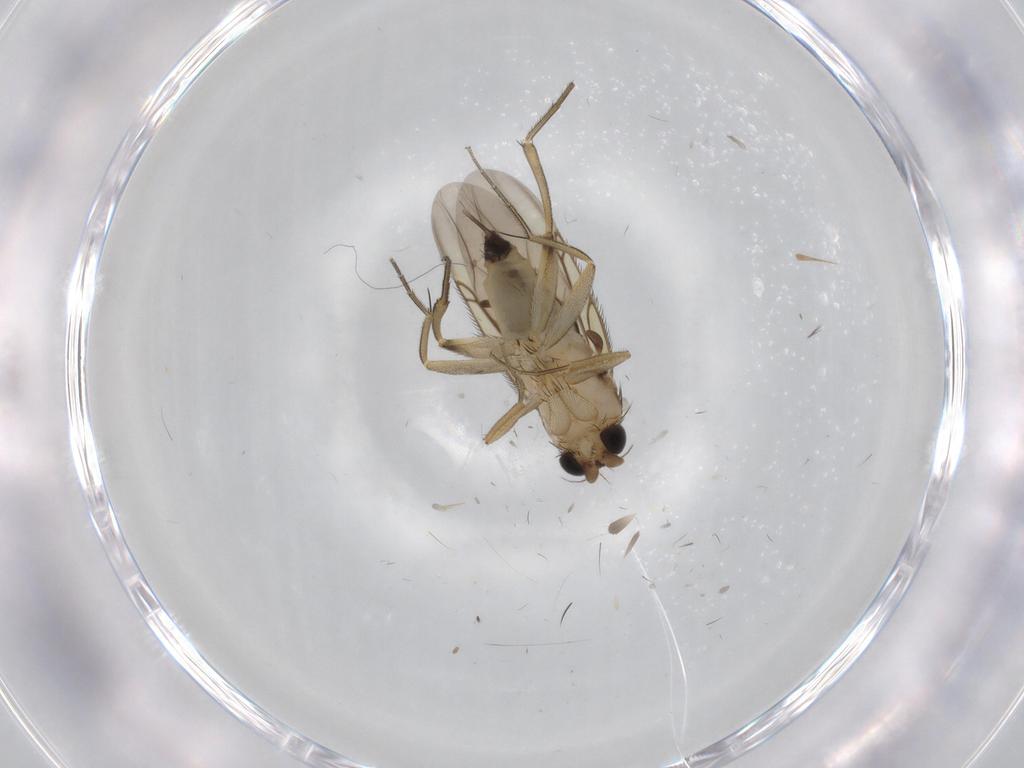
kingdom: Animalia
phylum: Arthropoda
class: Insecta
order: Diptera
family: Phoridae
